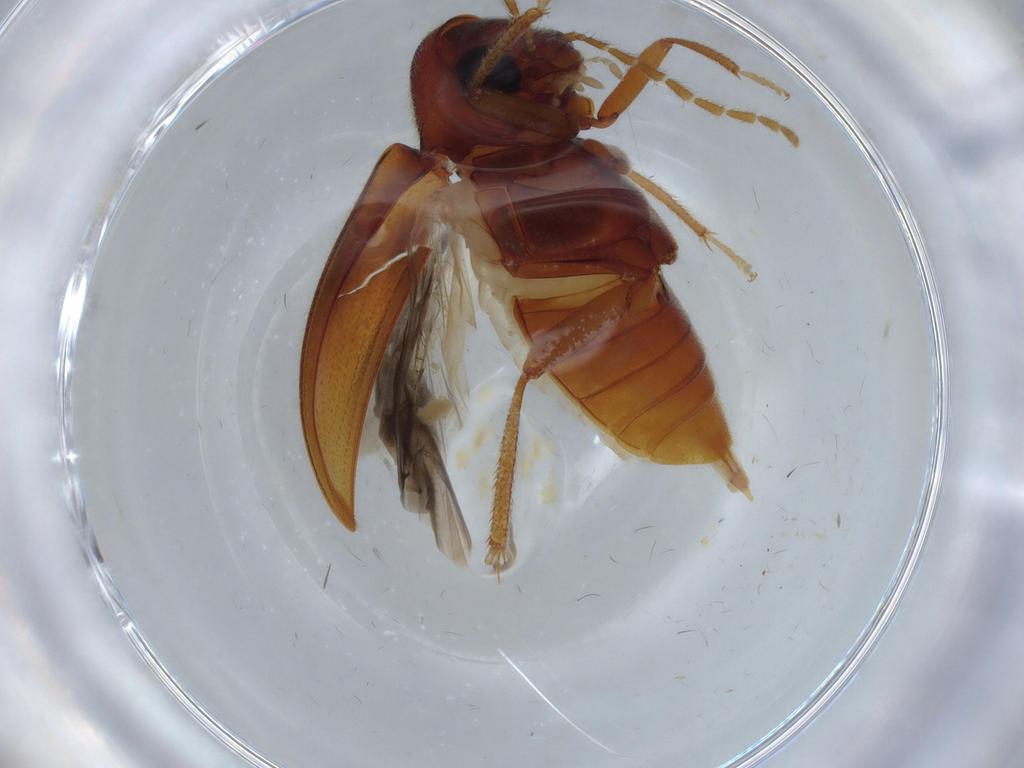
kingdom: Animalia
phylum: Arthropoda
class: Insecta
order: Coleoptera
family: Ptilodactylidae
